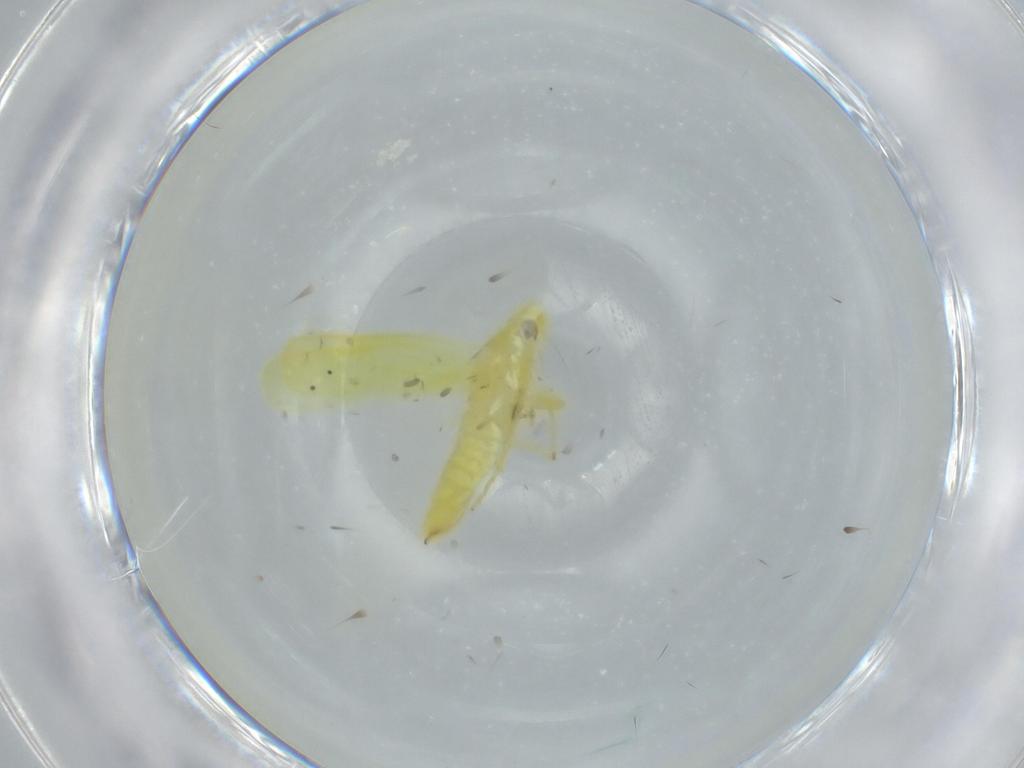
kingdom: Animalia
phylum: Arthropoda
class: Insecta
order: Hemiptera
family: Cicadellidae
